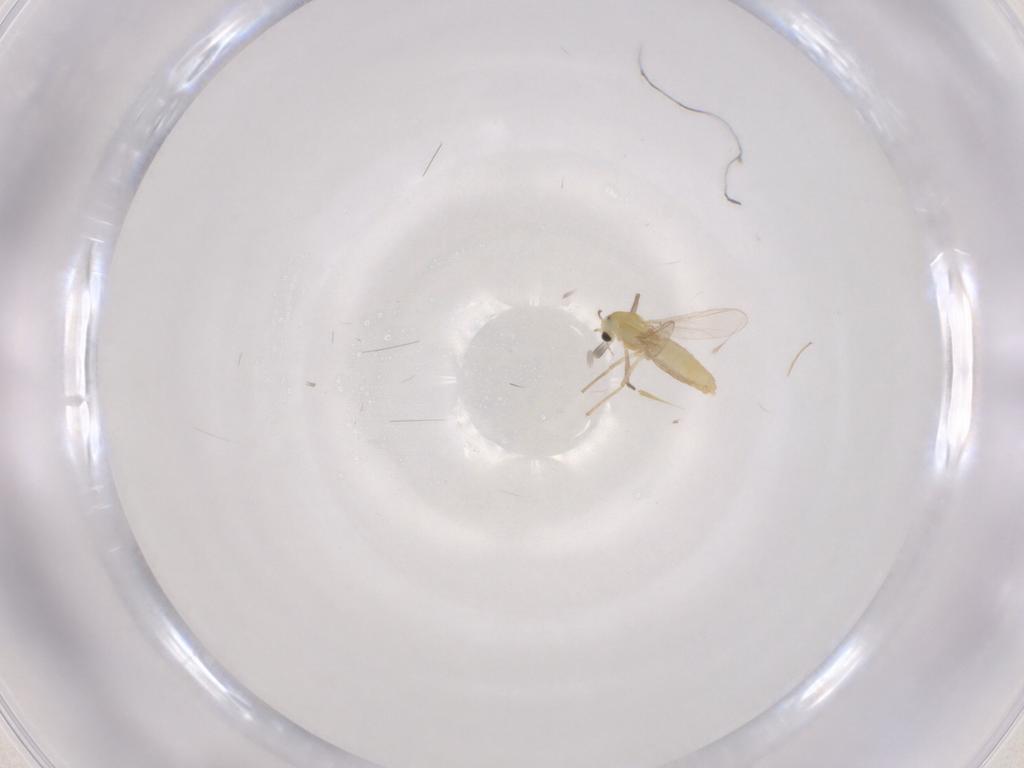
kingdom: Animalia
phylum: Arthropoda
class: Insecta
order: Diptera
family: Chironomidae
